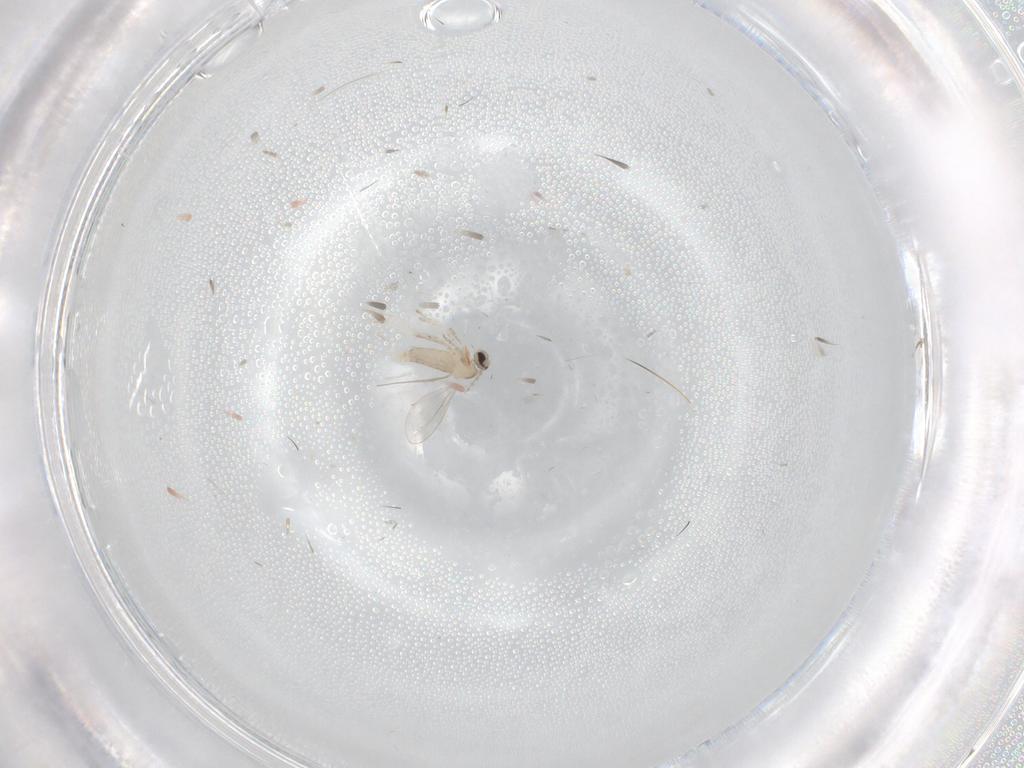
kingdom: Animalia
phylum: Arthropoda
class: Insecta
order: Diptera
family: Cecidomyiidae
